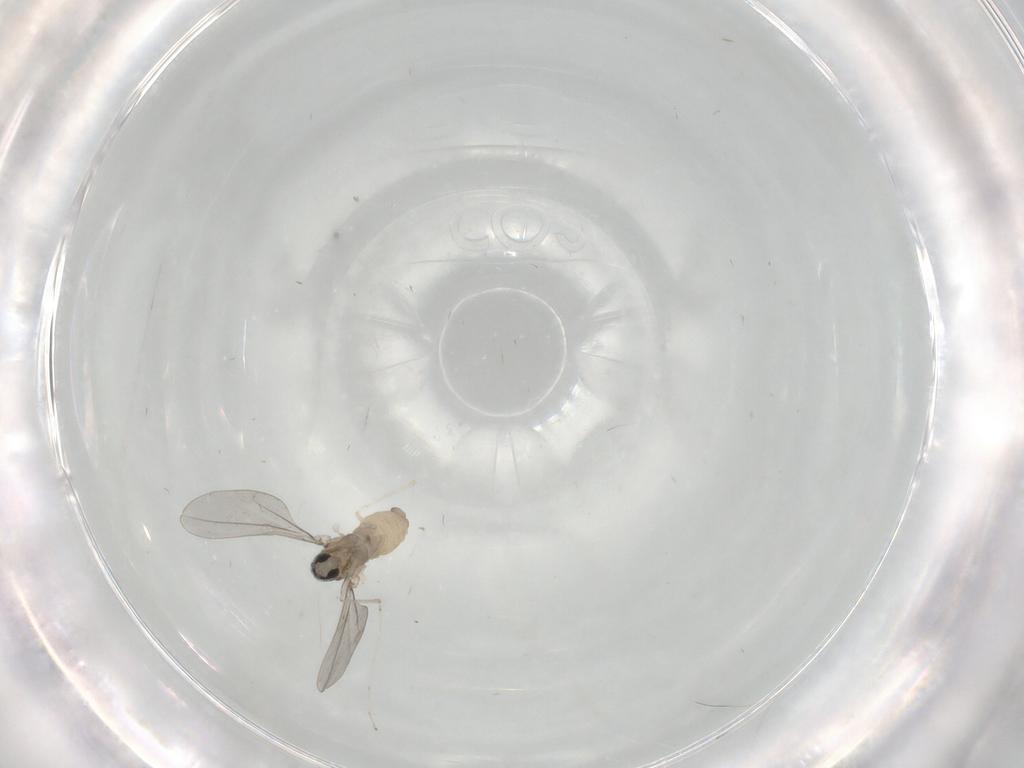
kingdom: Animalia
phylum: Arthropoda
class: Insecta
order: Diptera
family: Cecidomyiidae
